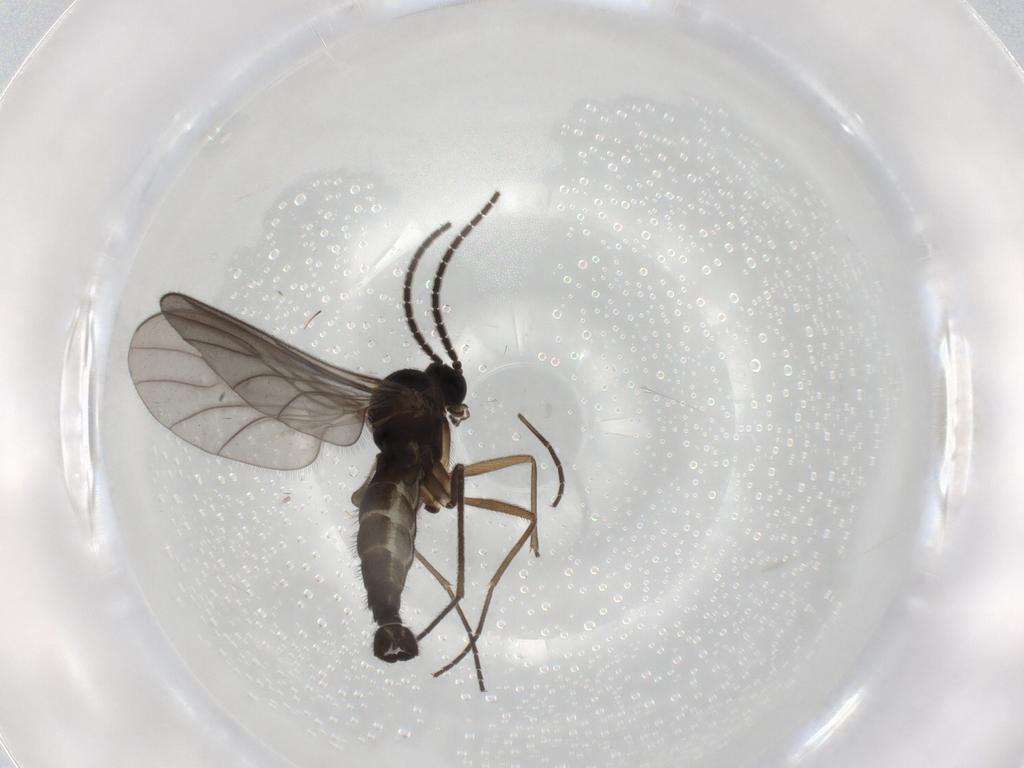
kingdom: Animalia
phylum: Arthropoda
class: Insecta
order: Diptera
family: Sciaridae
